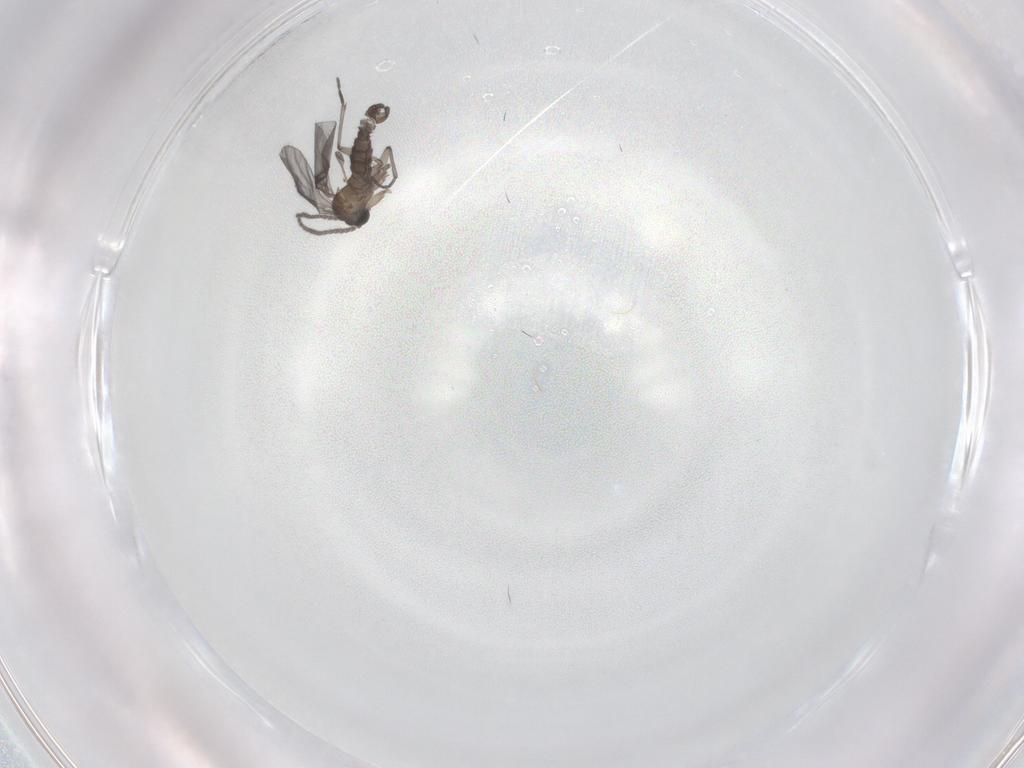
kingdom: Animalia
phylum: Arthropoda
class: Insecta
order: Diptera
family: Sciaridae
